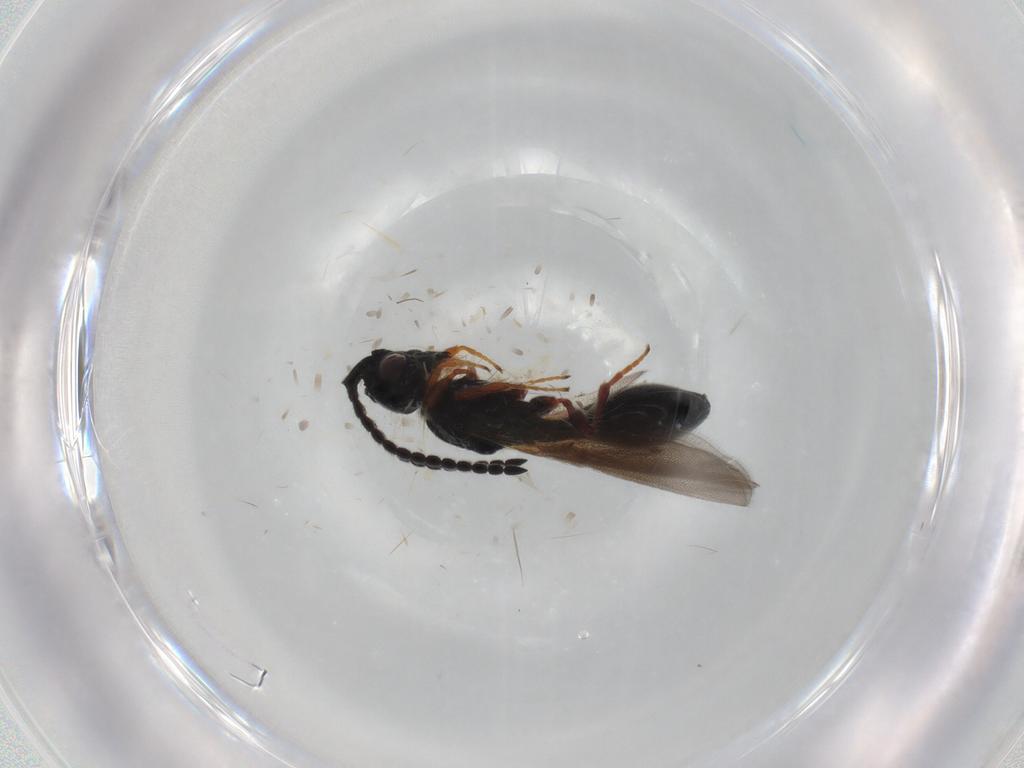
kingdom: Animalia
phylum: Arthropoda
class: Insecta
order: Hymenoptera
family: Diapriidae
